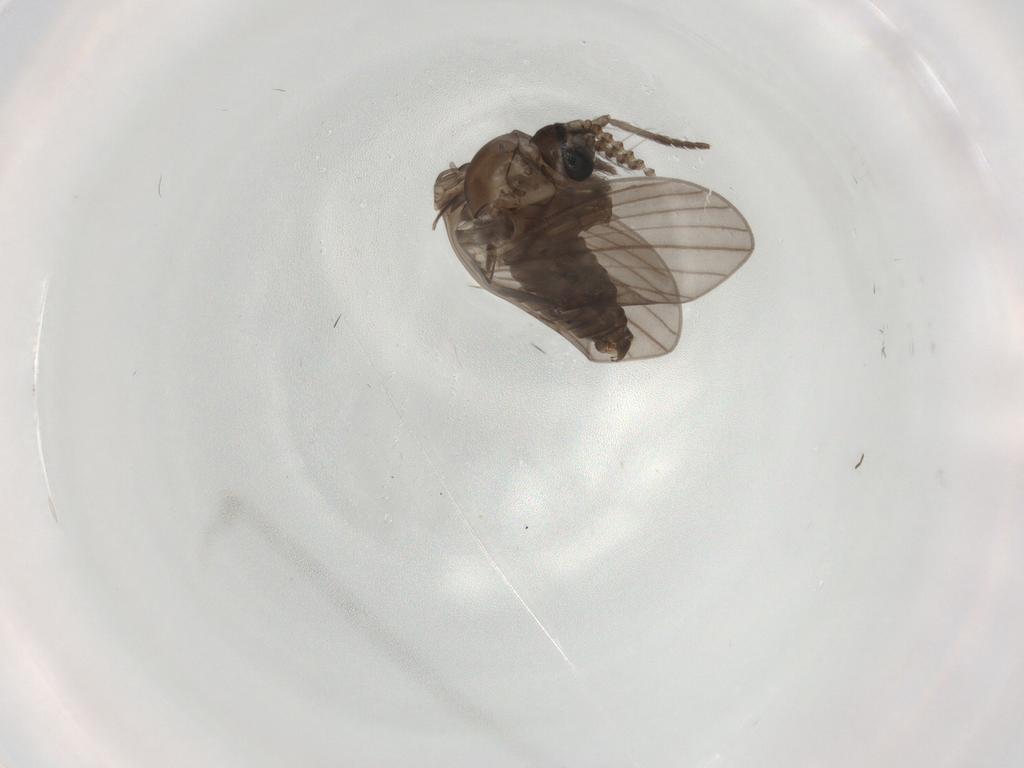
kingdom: Animalia
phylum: Arthropoda
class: Insecta
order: Diptera
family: Psychodidae
